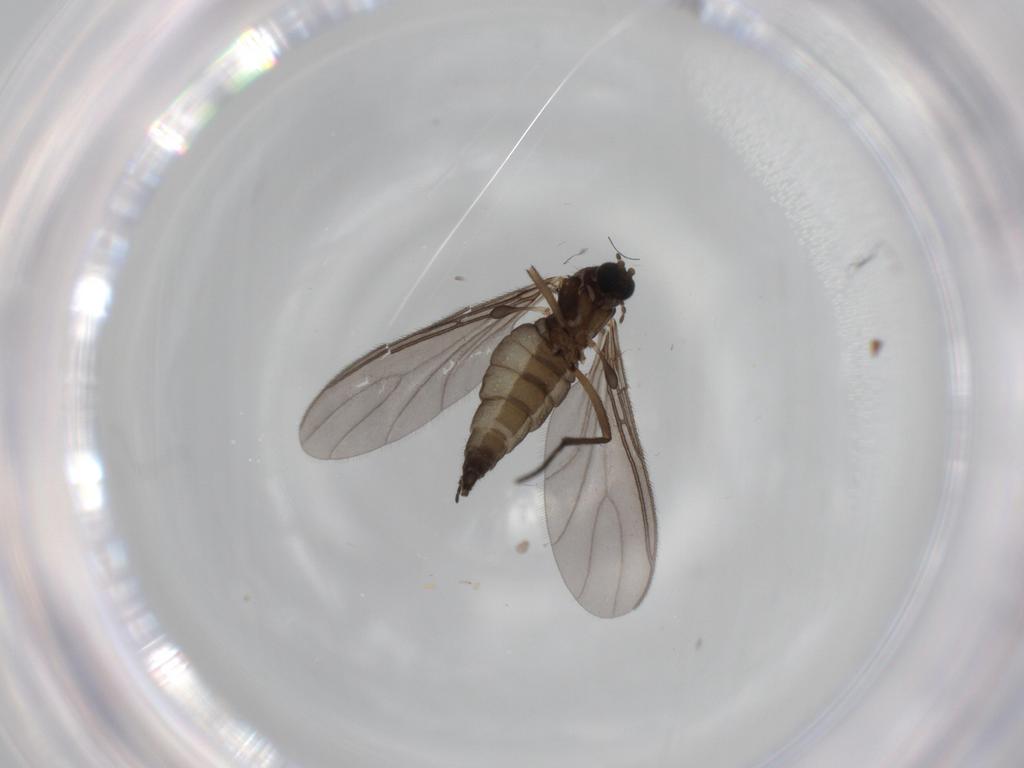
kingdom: Animalia
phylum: Arthropoda
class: Insecta
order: Diptera
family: Sciaridae
